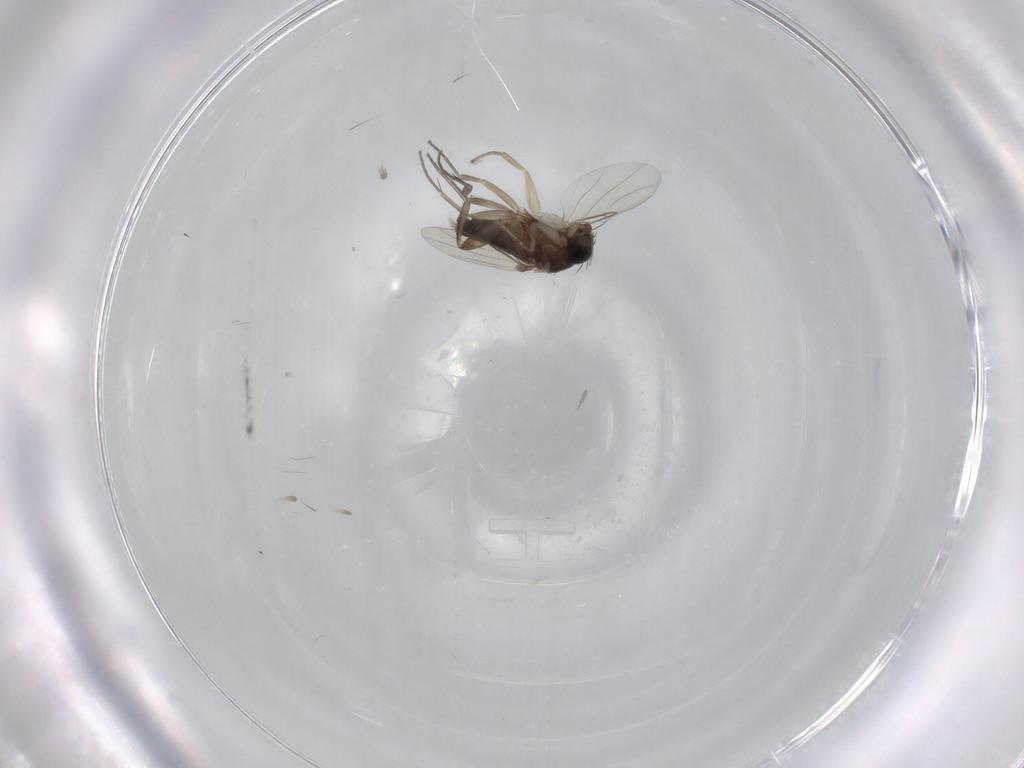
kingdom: Animalia
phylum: Arthropoda
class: Insecta
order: Diptera
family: Phoridae
